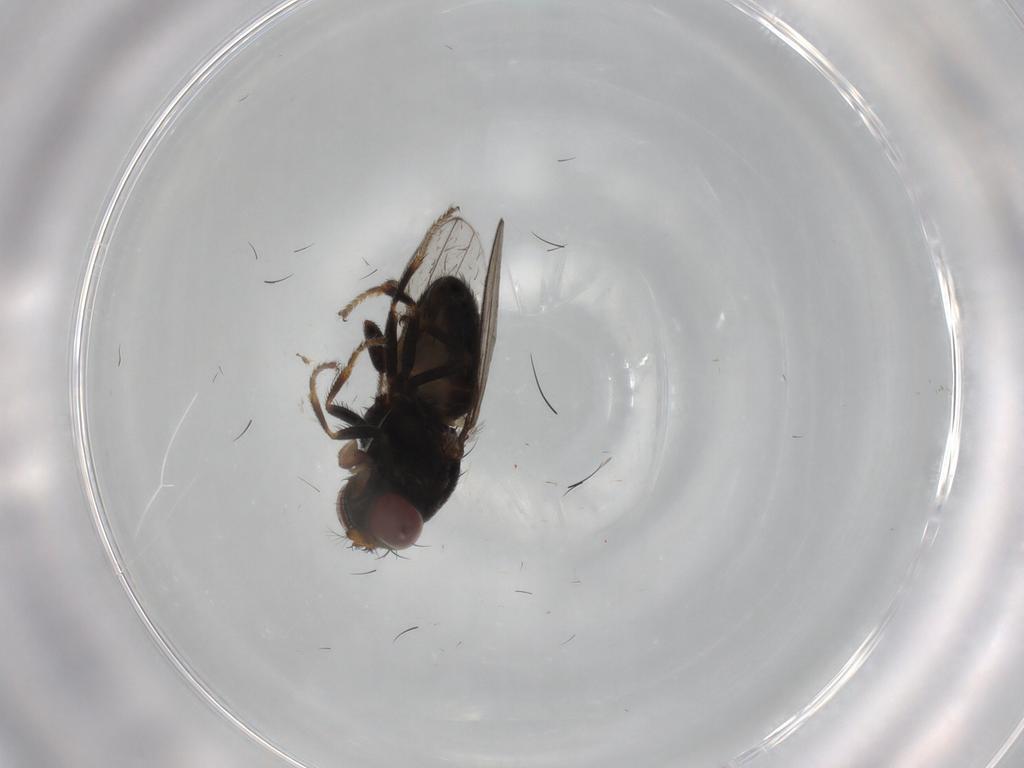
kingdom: Animalia
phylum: Arthropoda
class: Insecta
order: Diptera
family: Ephydridae
